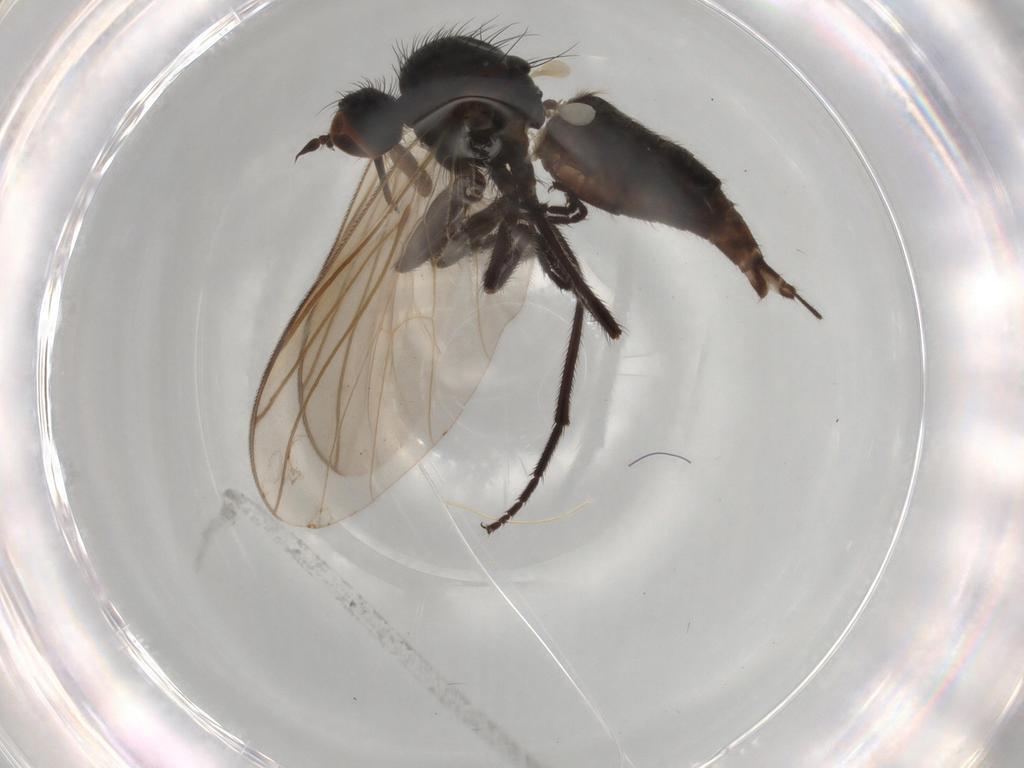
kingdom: Animalia
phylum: Arthropoda
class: Insecta
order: Diptera
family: Empididae
